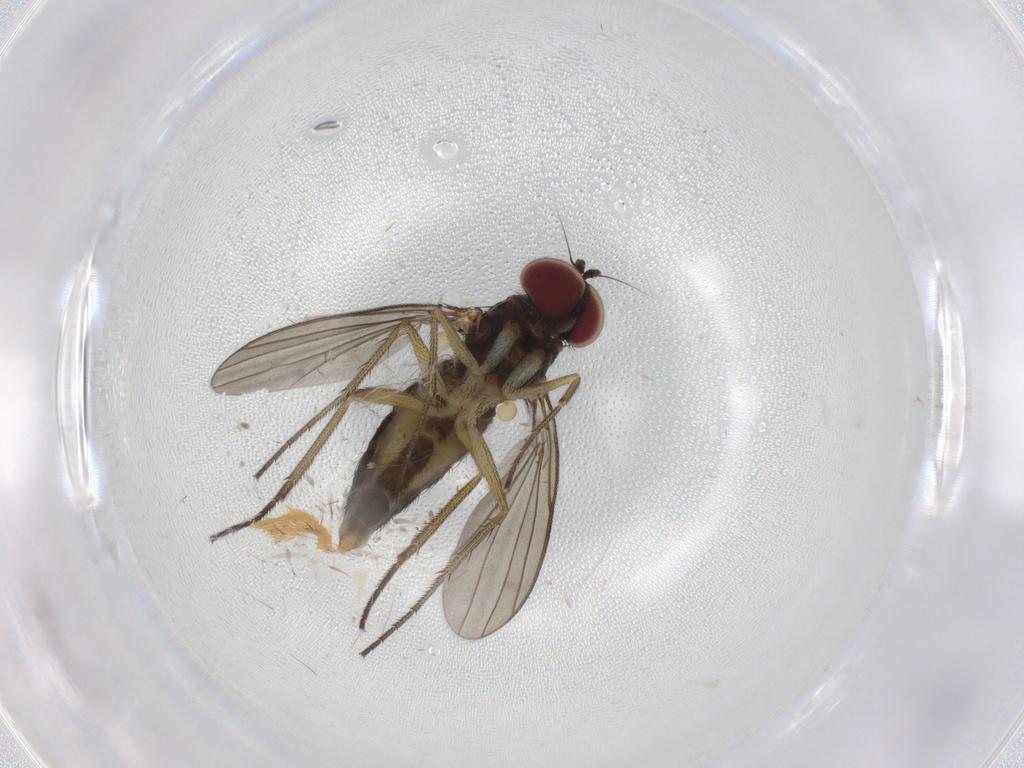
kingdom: Animalia
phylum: Arthropoda
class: Insecta
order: Diptera
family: Dolichopodidae
